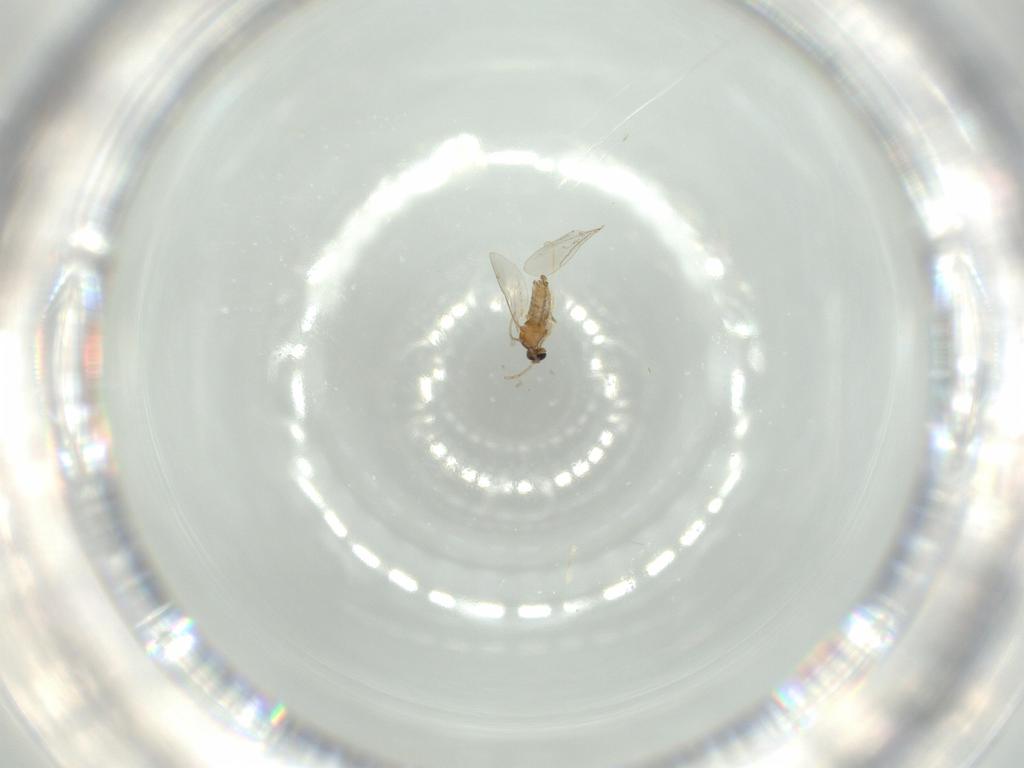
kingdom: Animalia
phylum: Arthropoda
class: Insecta
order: Diptera
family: Cecidomyiidae
